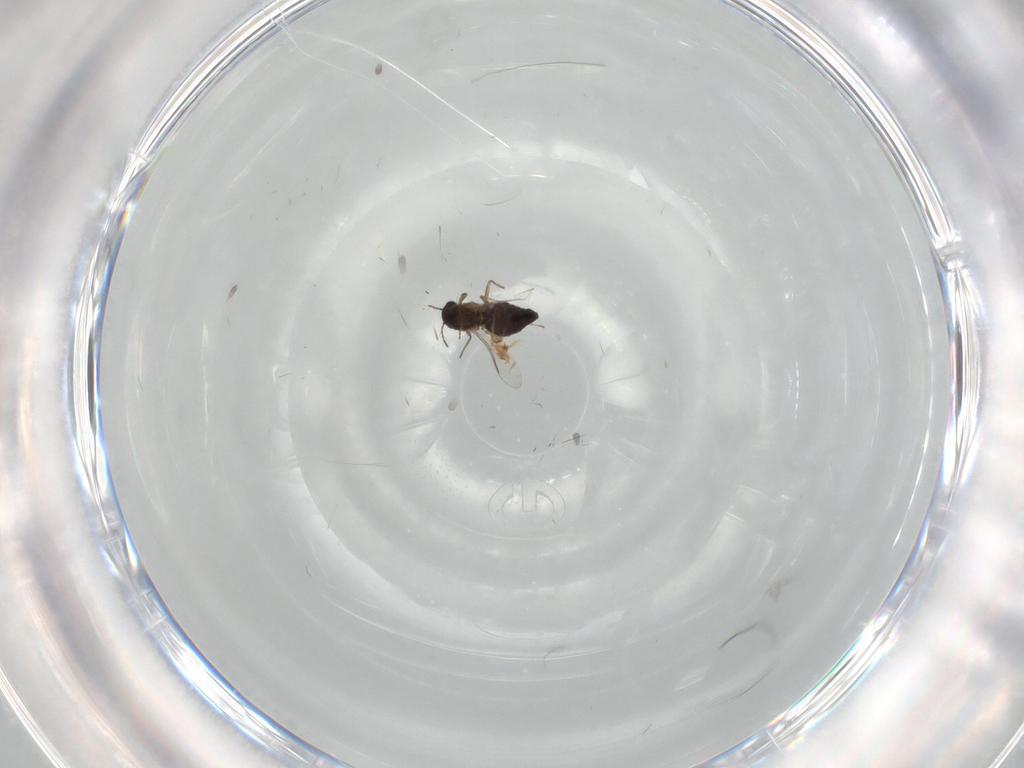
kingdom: Animalia
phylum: Arthropoda
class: Insecta
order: Diptera
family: Chironomidae
